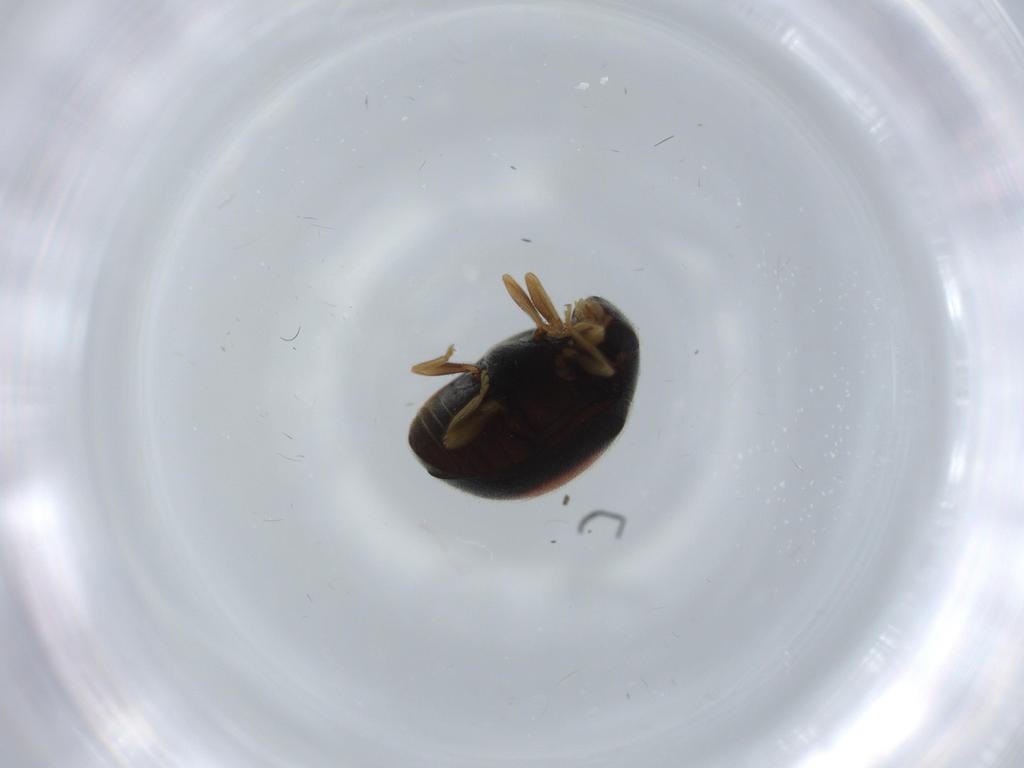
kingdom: Animalia
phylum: Arthropoda
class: Insecta
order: Coleoptera
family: Coccinellidae
